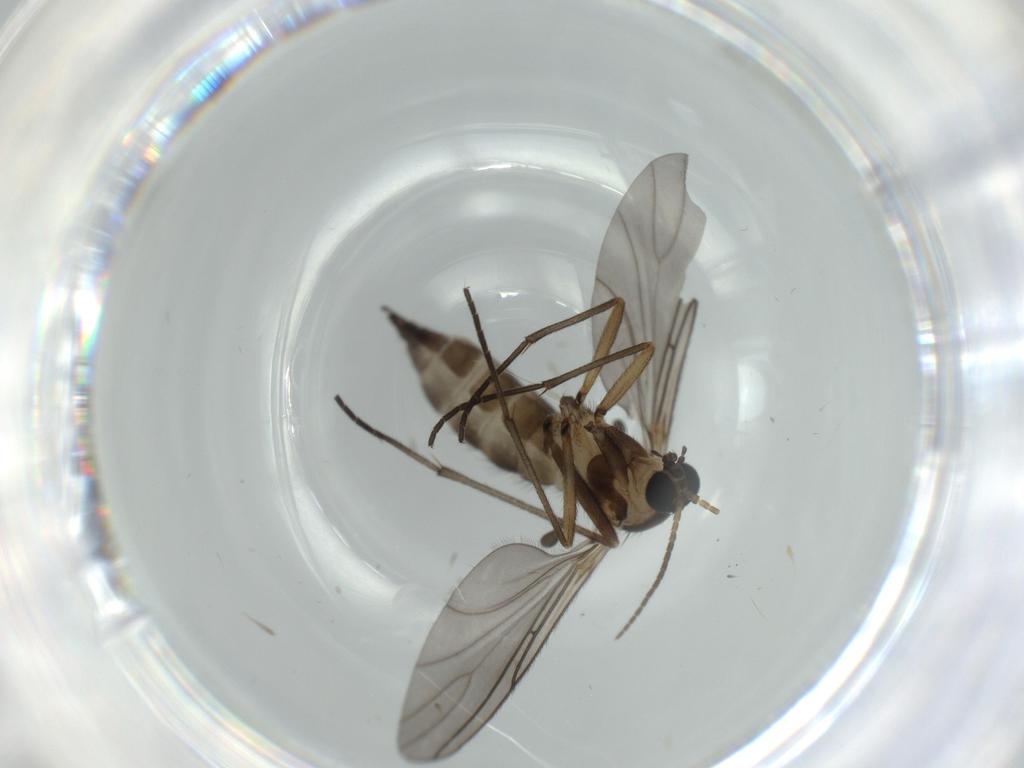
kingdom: Animalia
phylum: Arthropoda
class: Insecta
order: Diptera
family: Sciaridae
